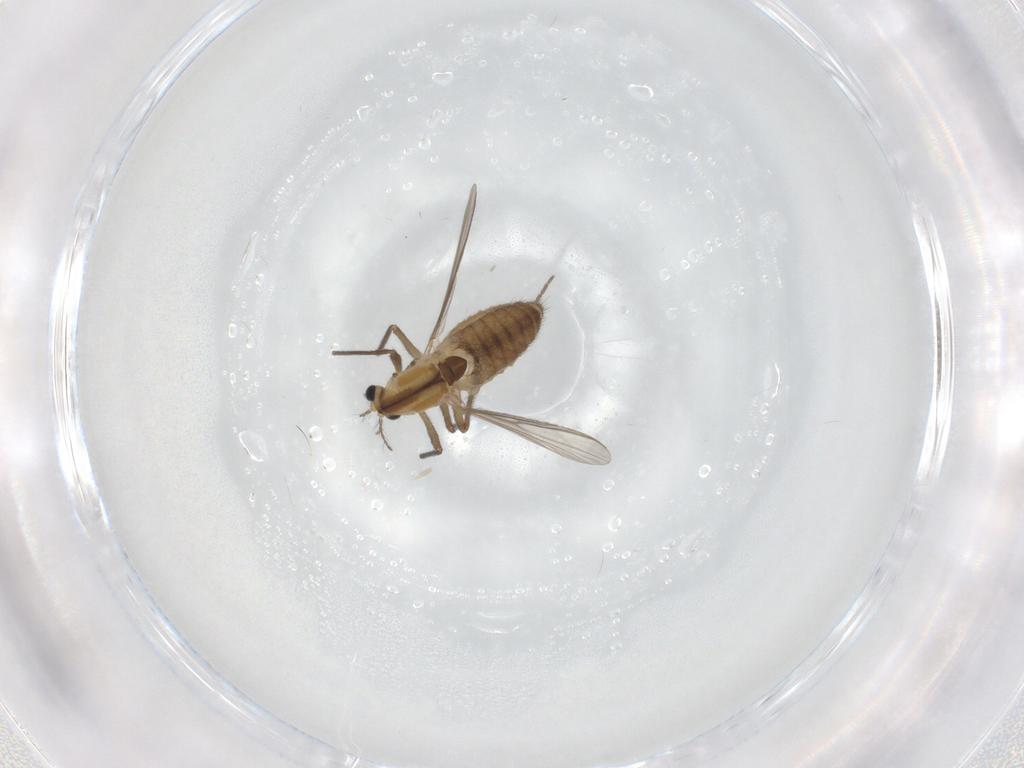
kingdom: Animalia
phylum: Arthropoda
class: Insecta
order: Diptera
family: Chironomidae
